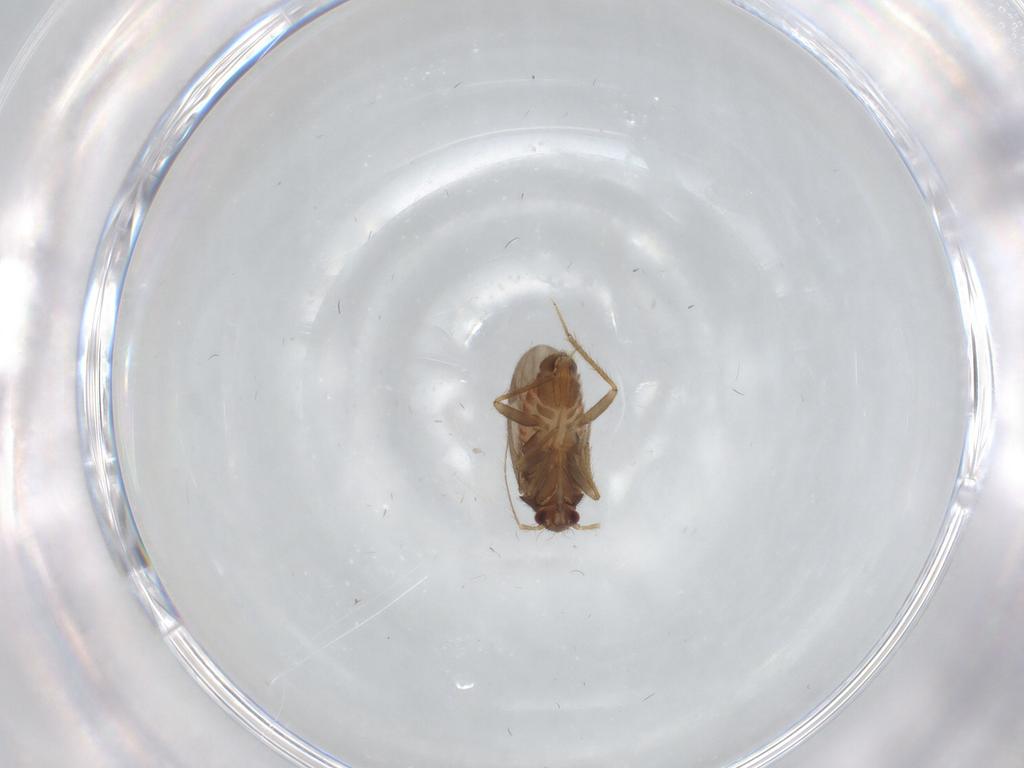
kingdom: Animalia
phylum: Arthropoda
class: Insecta
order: Hemiptera
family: Ceratocombidae
